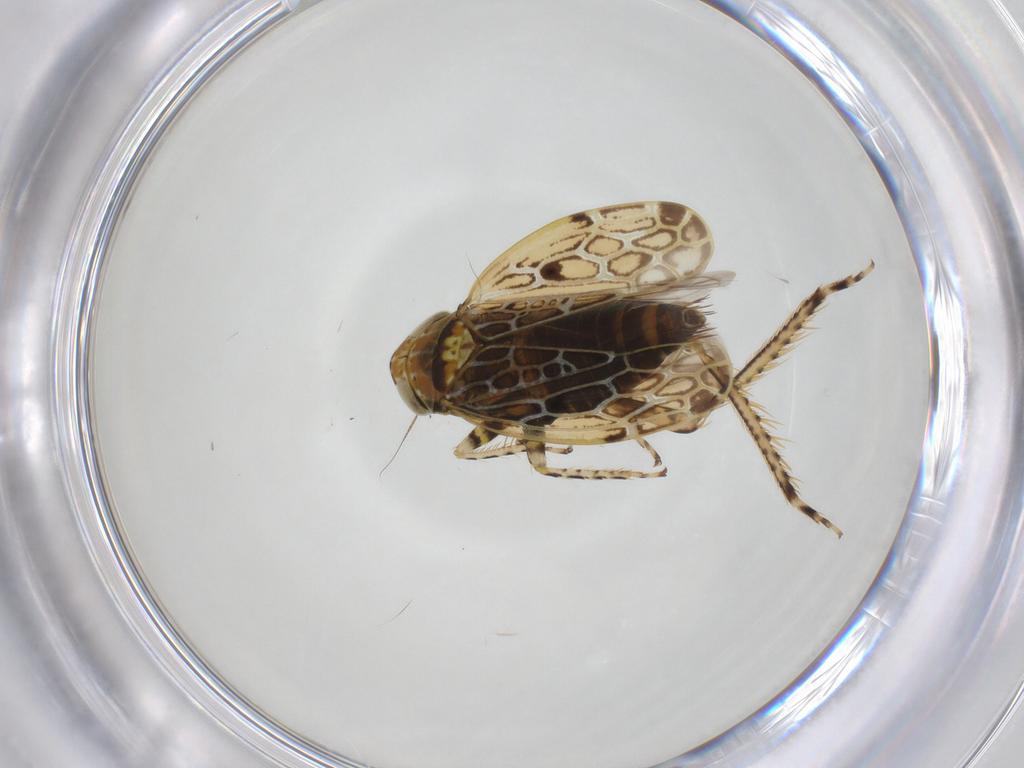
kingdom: Animalia
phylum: Arthropoda
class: Insecta
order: Hemiptera
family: Cicadellidae
